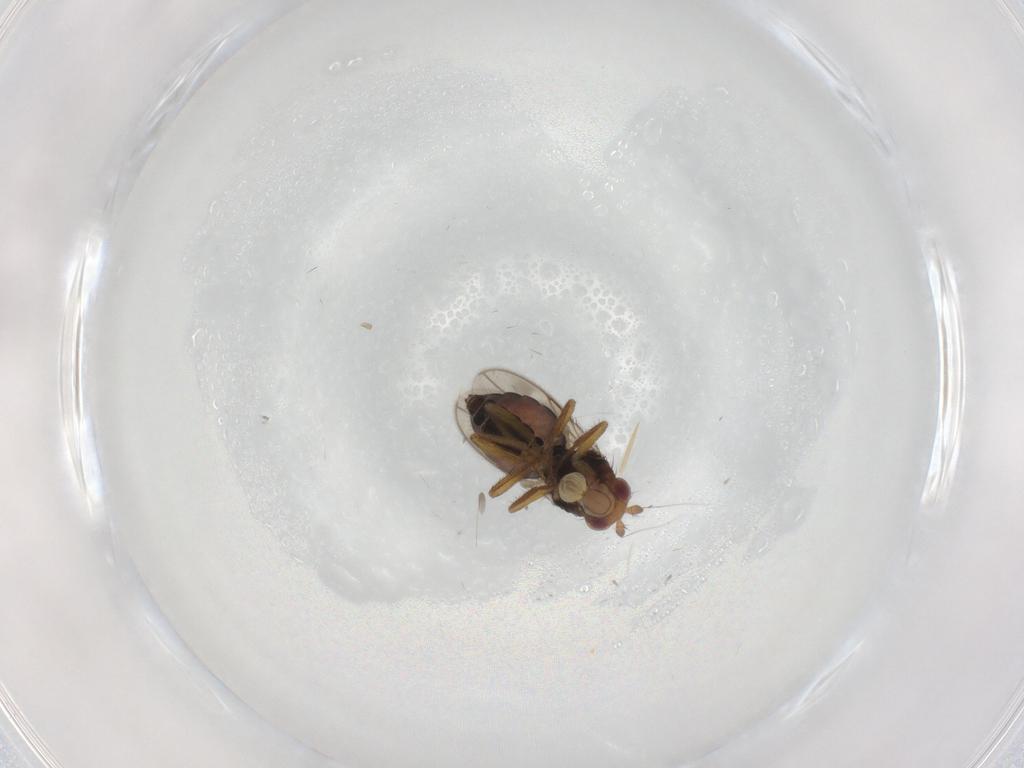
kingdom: Animalia
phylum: Arthropoda
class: Insecta
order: Diptera
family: Sphaeroceridae
